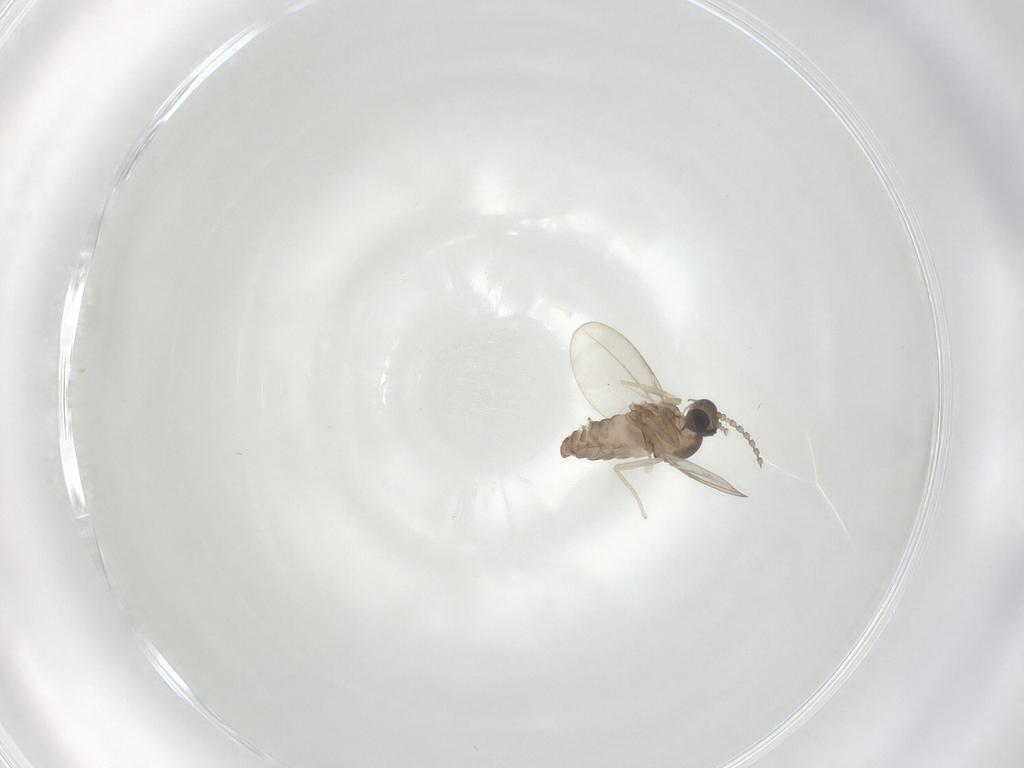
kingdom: Animalia
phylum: Arthropoda
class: Insecta
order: Diptera
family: Cecidomyiidae
